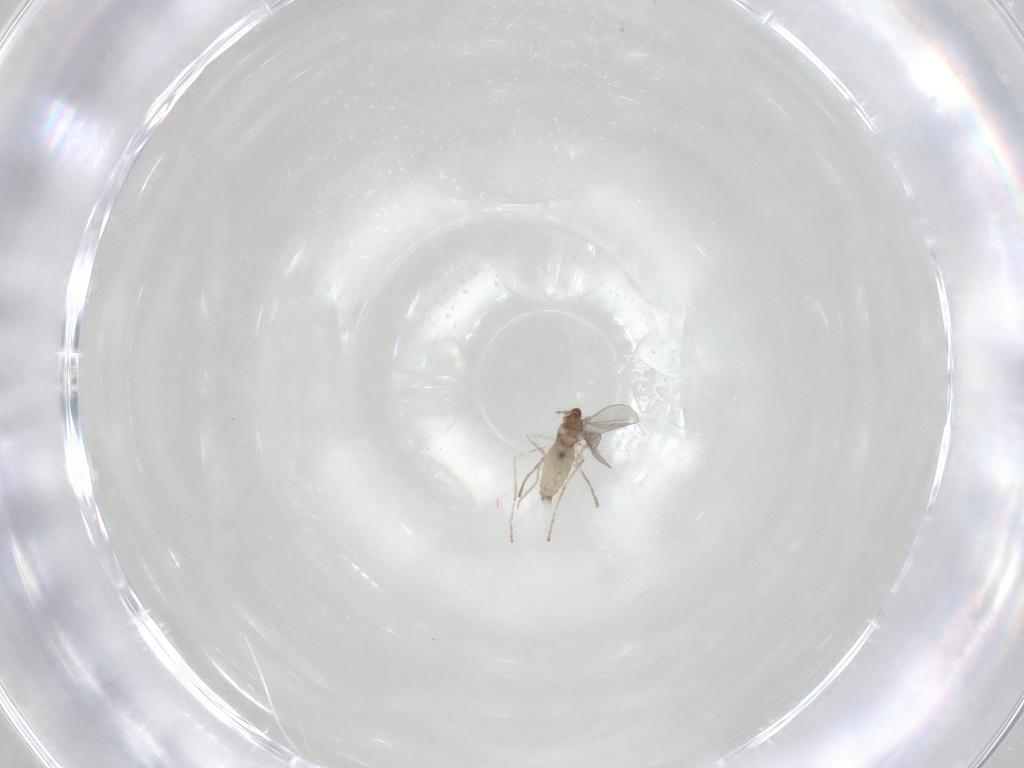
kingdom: Animalia
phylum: Arthropoda
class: Insecta
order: Diptera
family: Cecidomyiidae
